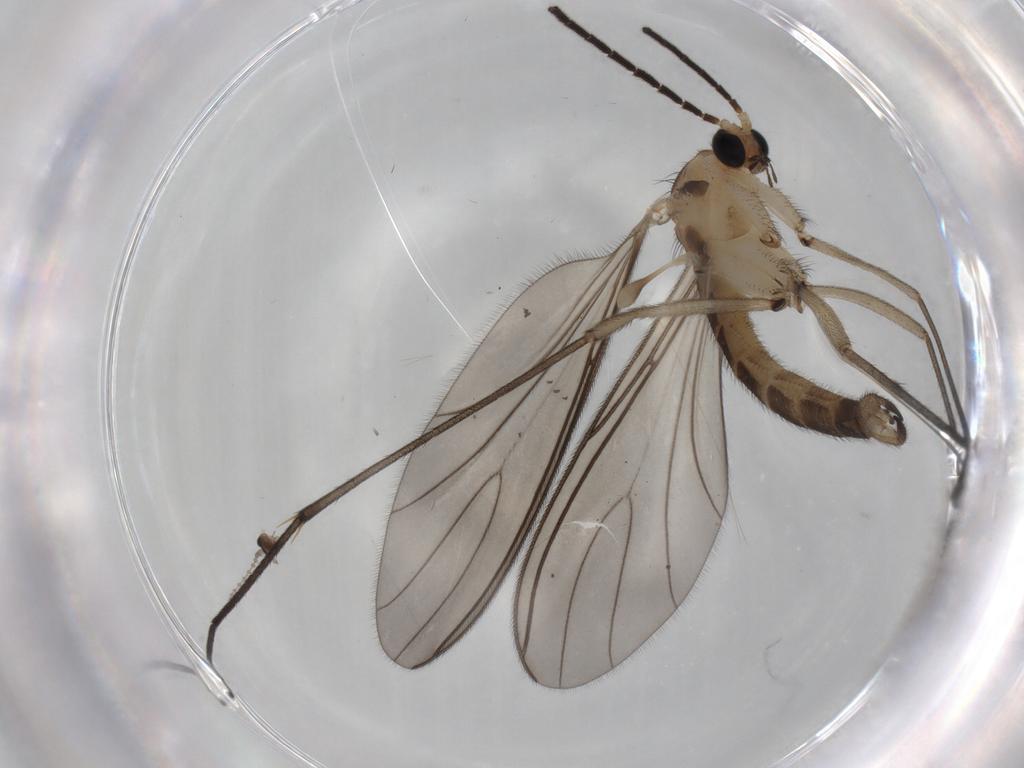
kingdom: Animalia
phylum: Arthropoda
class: Insecta
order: Diptera
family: Sciaridae
